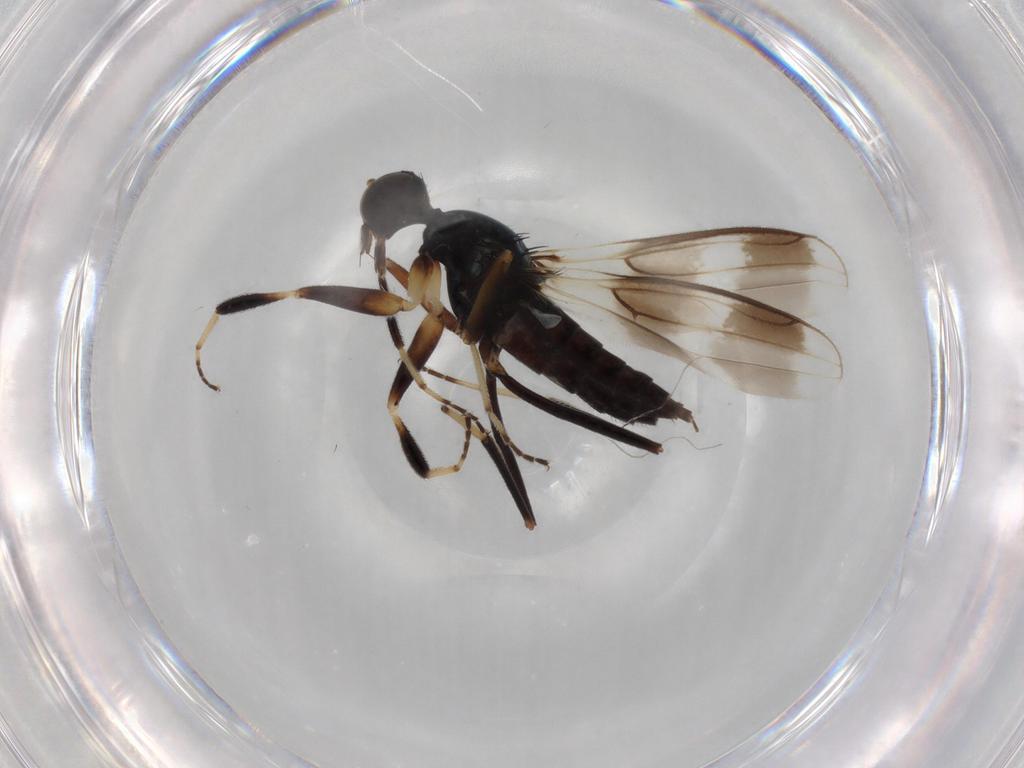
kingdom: Animalia
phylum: Arthropoda
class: Insecta
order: Diptera
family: Hybotidae
